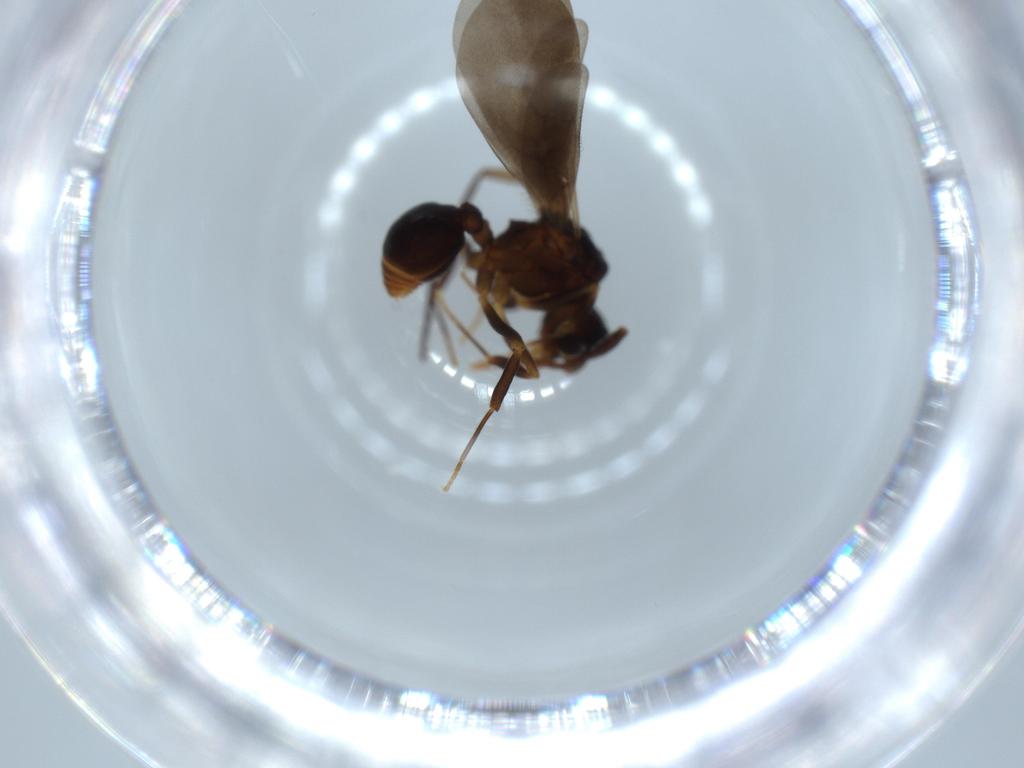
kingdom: Animalia
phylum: Arthropoda
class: Insecta
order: Hymenoptera
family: Formicidae
